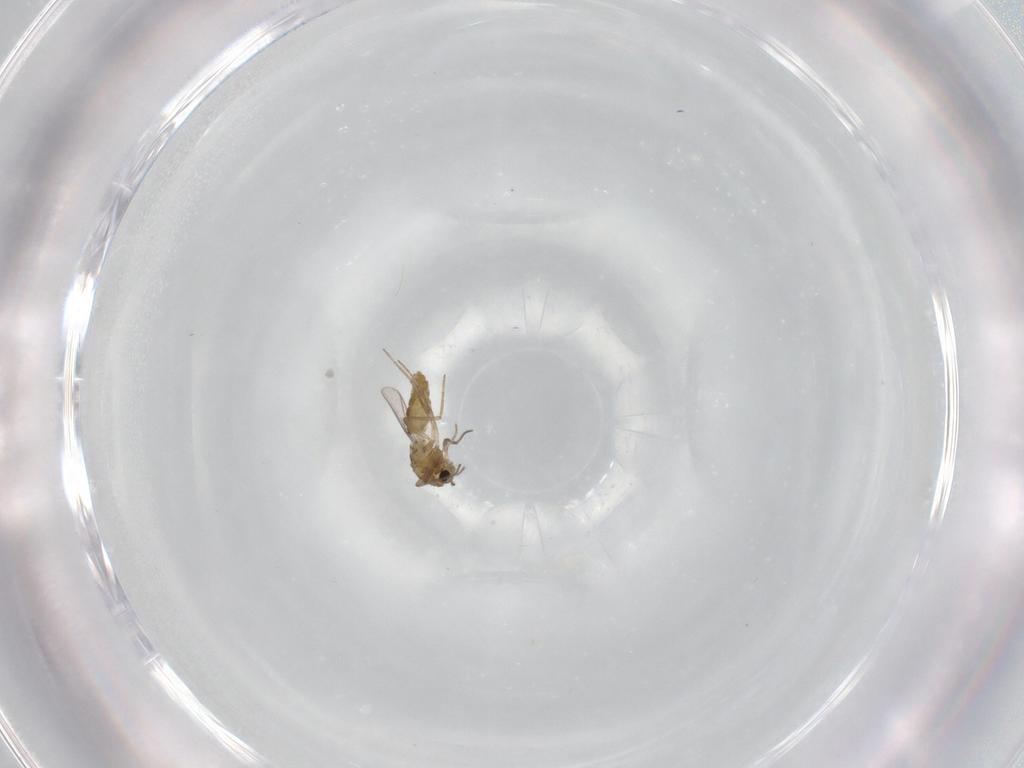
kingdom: Animalia
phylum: Arthropoda
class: Insecta
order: Diptera
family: Chironomidae
